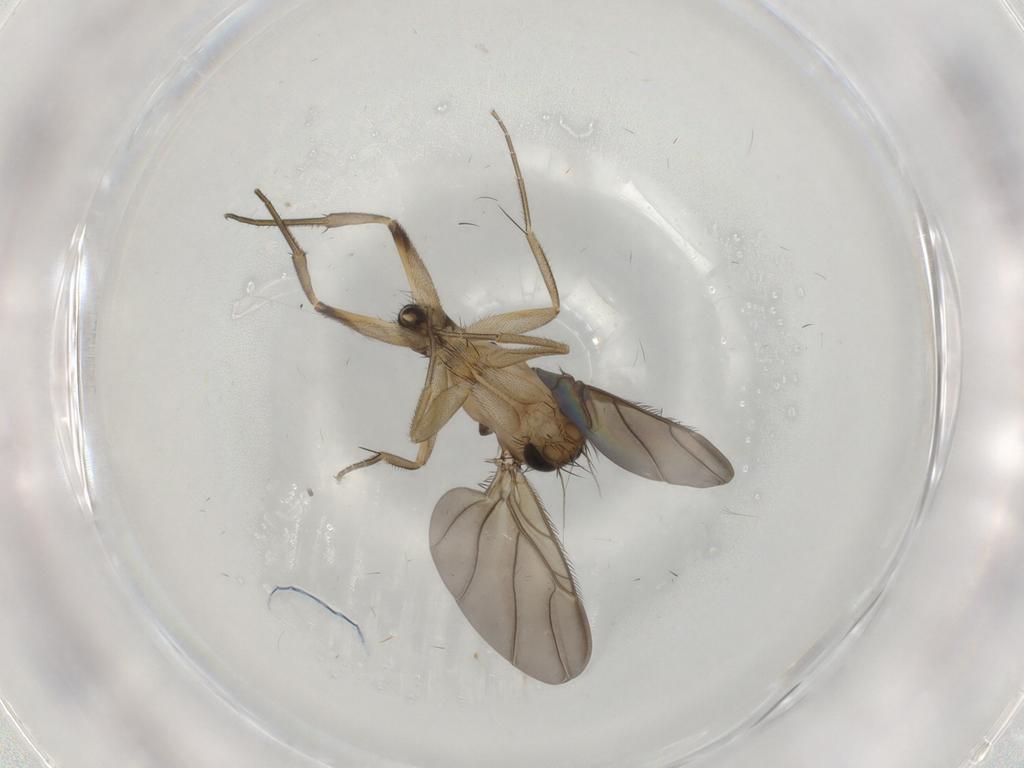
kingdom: Animalia
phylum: Arthropoda
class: Insecta
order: Diptera
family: Phoridae
